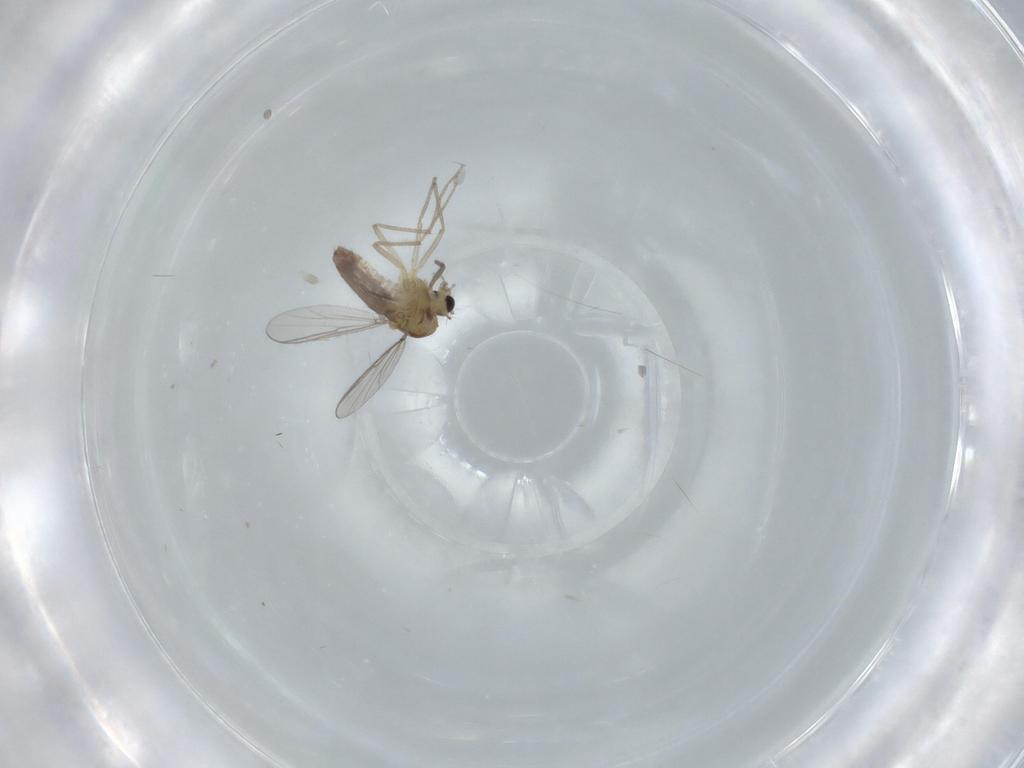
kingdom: Animalia
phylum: Arthropoda
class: Insecta
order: Diptera
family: Chironomidae
